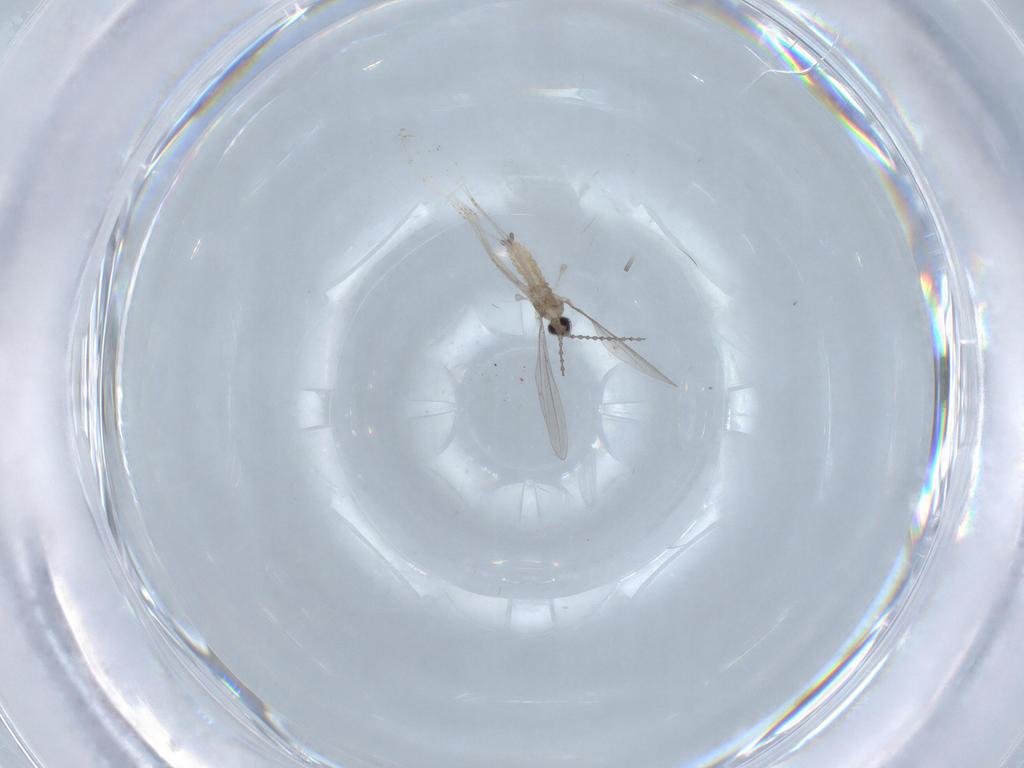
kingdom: Animalia
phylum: Arthropoda
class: Insecta
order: Diptera
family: Cecidomyiidae
